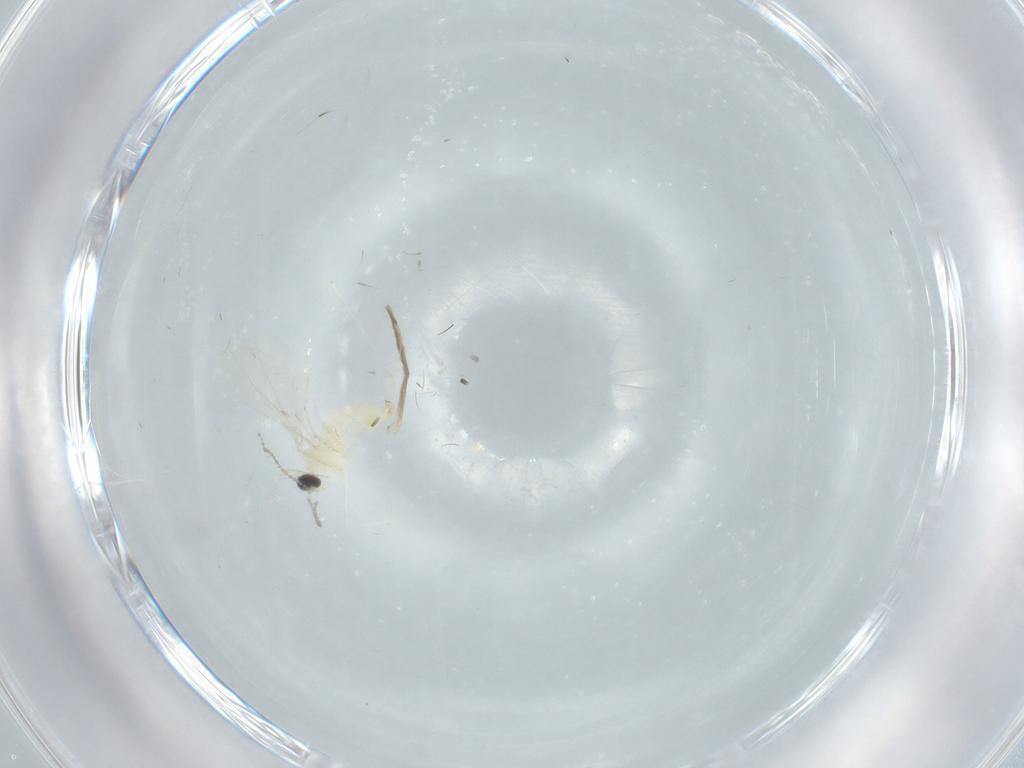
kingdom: Animalia
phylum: Arthropoda
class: Insecta
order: Diptera
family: Cecidomyiidae
